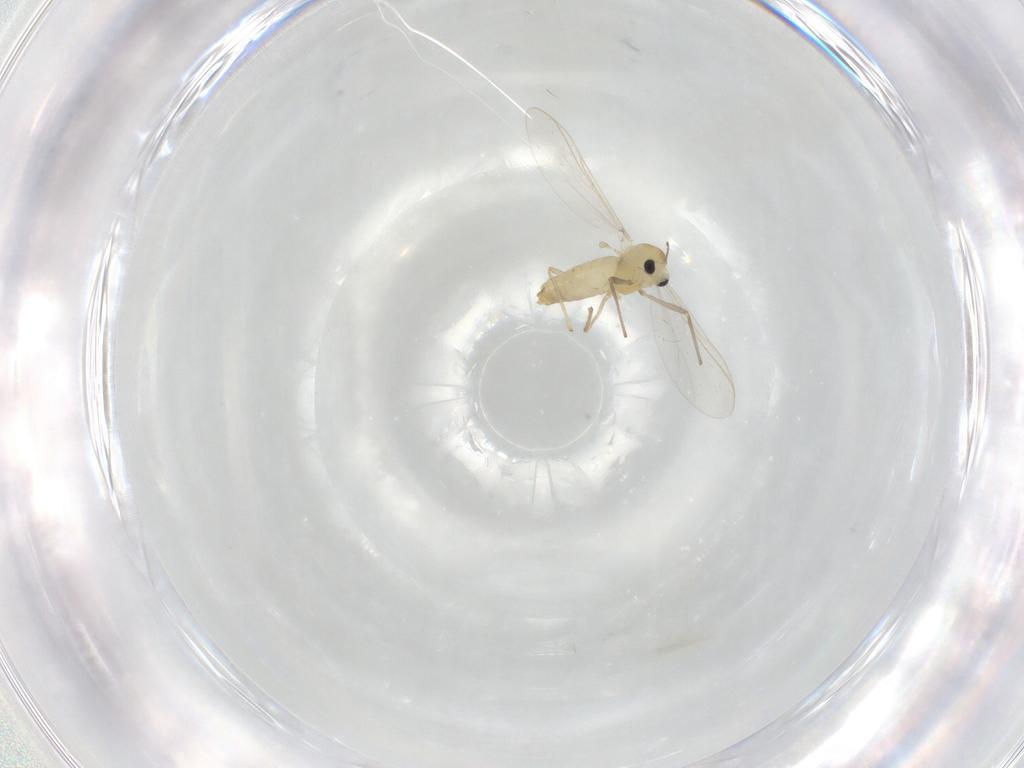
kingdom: Animalia
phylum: Arthropoda
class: Insecta
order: Diptera
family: Chironomidae
